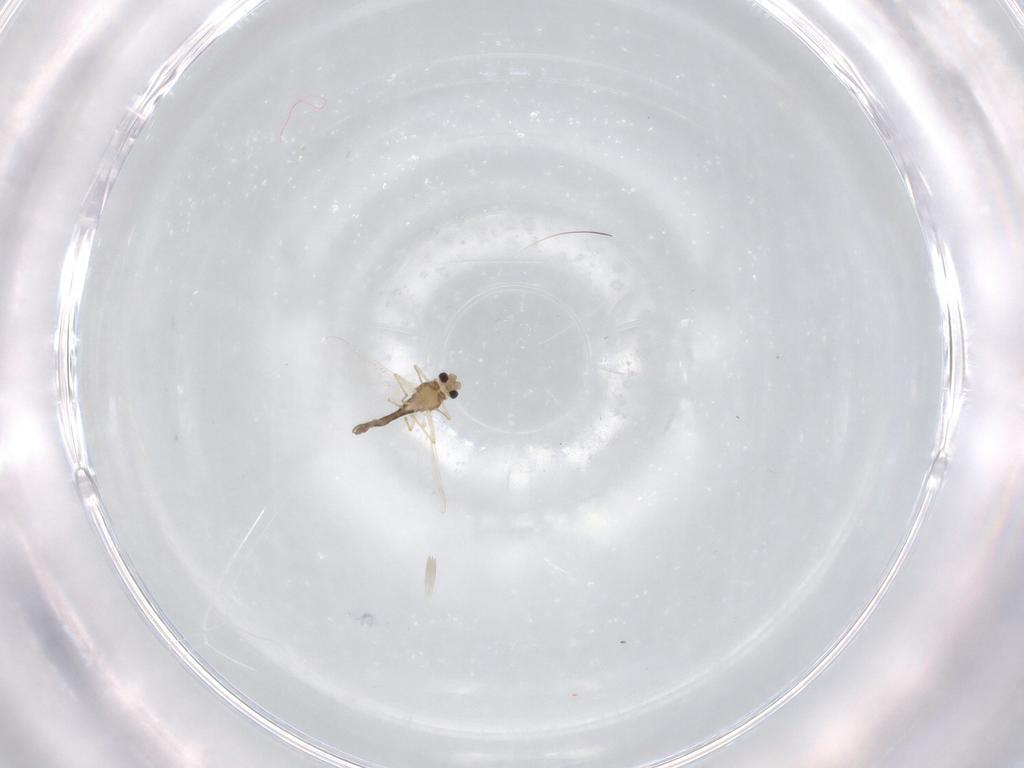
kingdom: Animalia
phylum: Arthropoda
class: Insecta
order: Diptera
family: Chironomidae
